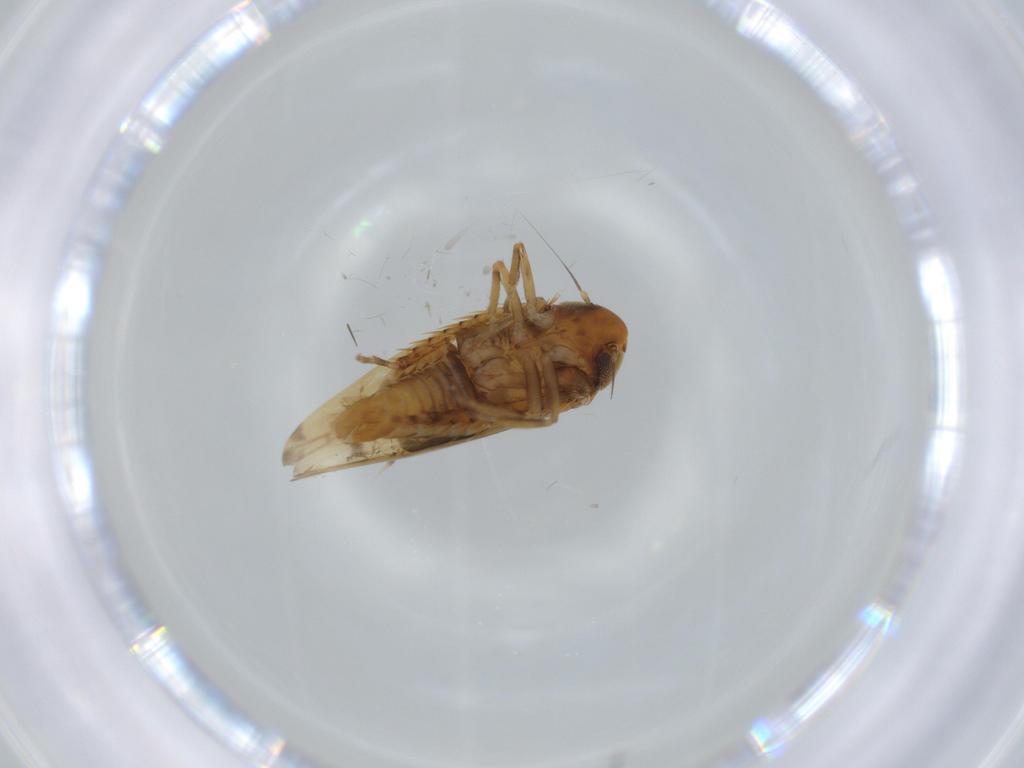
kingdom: Animalia
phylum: Arthropoda
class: Insecta
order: Hemiptera
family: Cicadellidae
